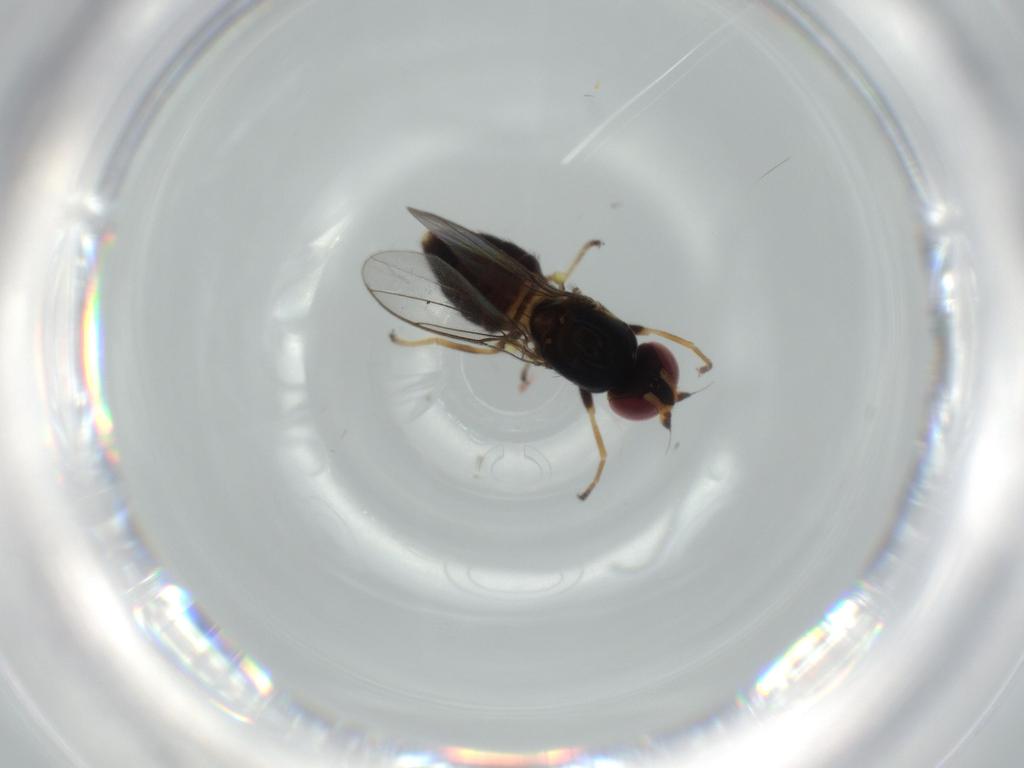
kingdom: Animalia
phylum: Arthropoda
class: Insecta
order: Diptera
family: Chloropidae
